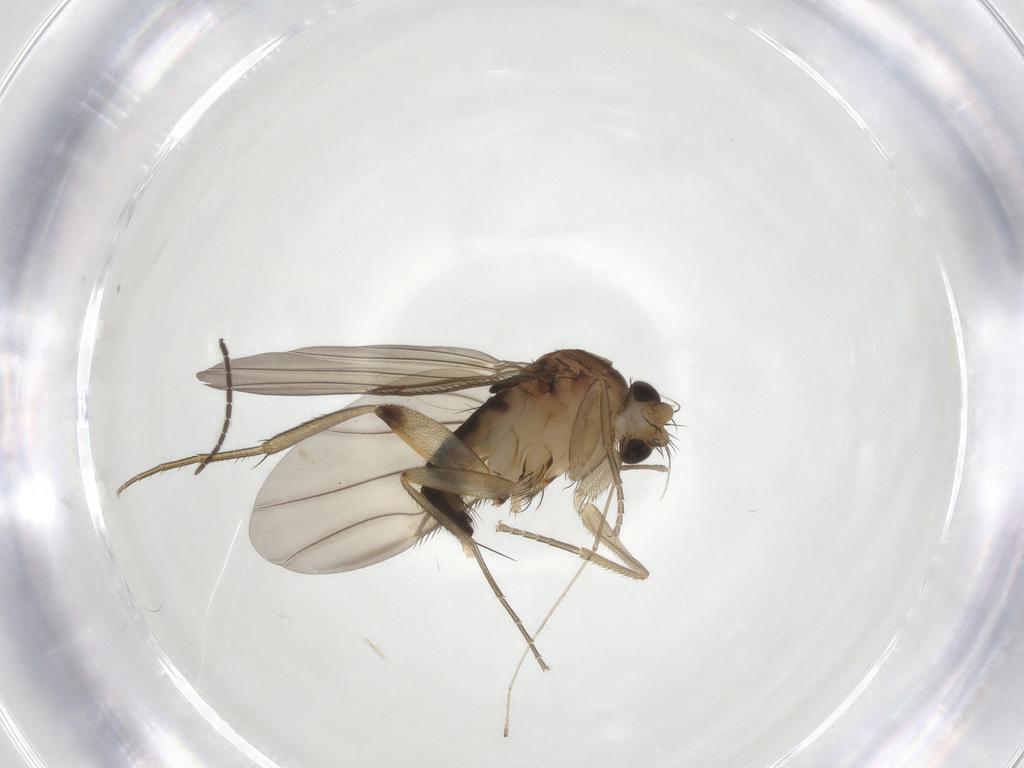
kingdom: Animalia
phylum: Arthropoda
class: Insecta
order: Diptera
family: Phoridae
